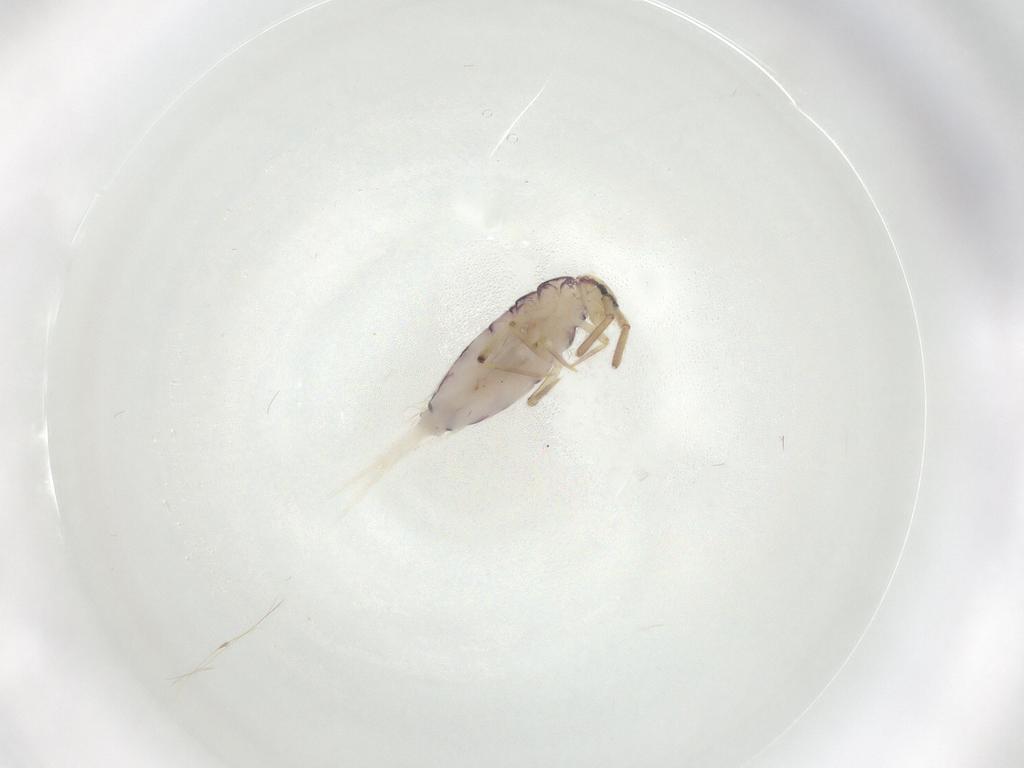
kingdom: Animalia
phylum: Arthropoda
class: Collembola
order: Entomobryomorpha
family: Entomobryidae
